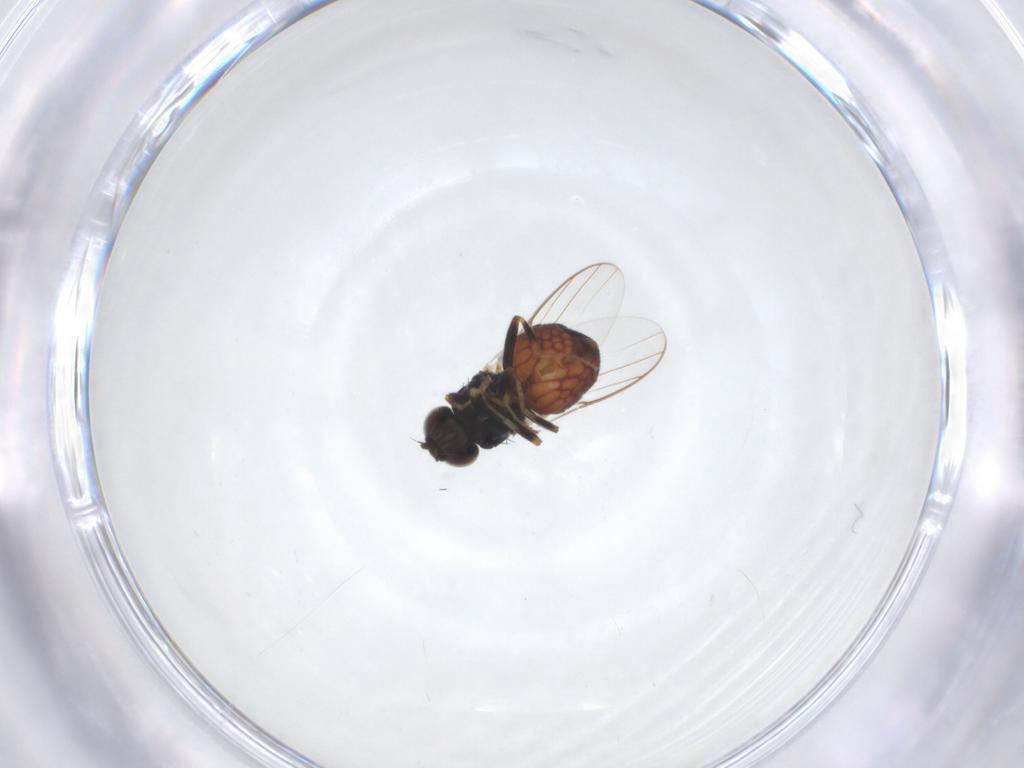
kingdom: Animalia
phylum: Arthropoda
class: Insecta
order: Diptera
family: Chloropidae
